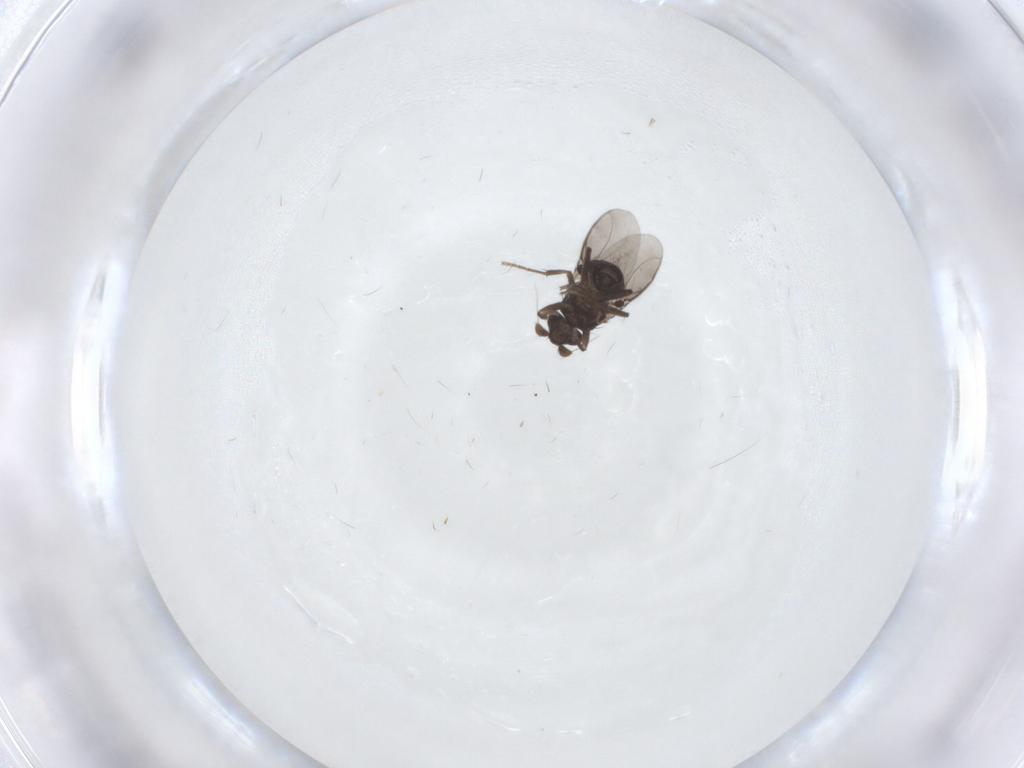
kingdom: Animalia
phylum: Arthropoda
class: Insecta
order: Diptera
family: Sphaeroceridae
